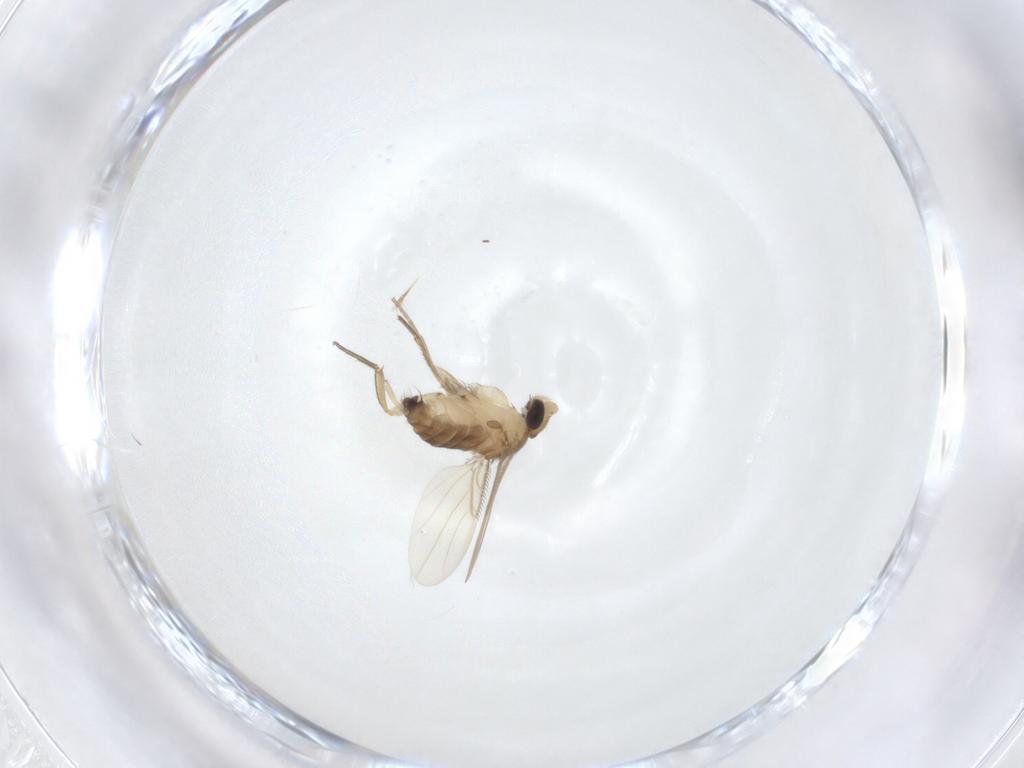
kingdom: Animalia
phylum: Arthropoda
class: Insecta
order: Diptera
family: Phoridae
